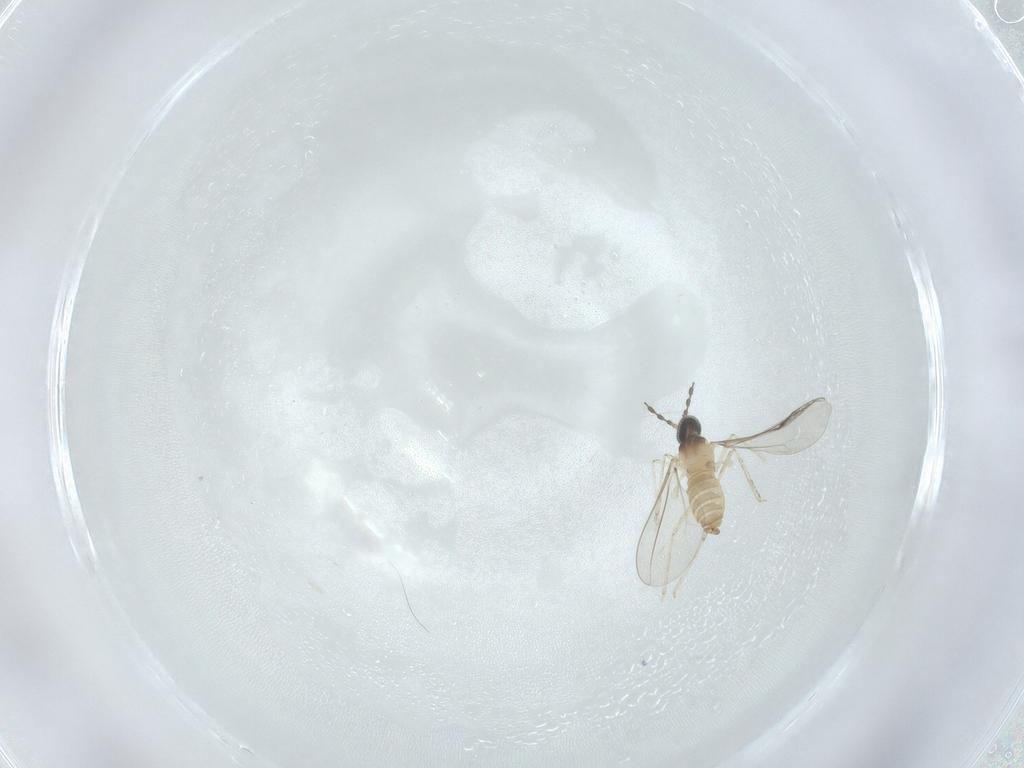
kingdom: Animalia
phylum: Arthropoda
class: Insecta
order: Diptera
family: Cecidomyiidae
